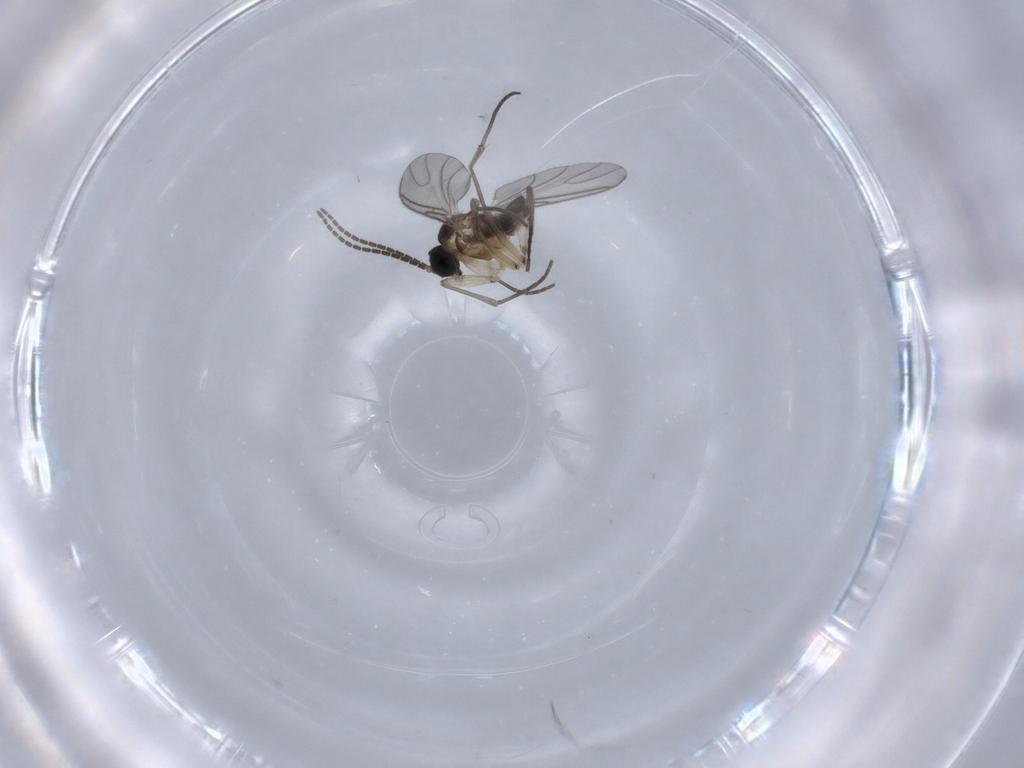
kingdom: Animalia
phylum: Arthropoda
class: Insecta
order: Diptera
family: Sciaridae
